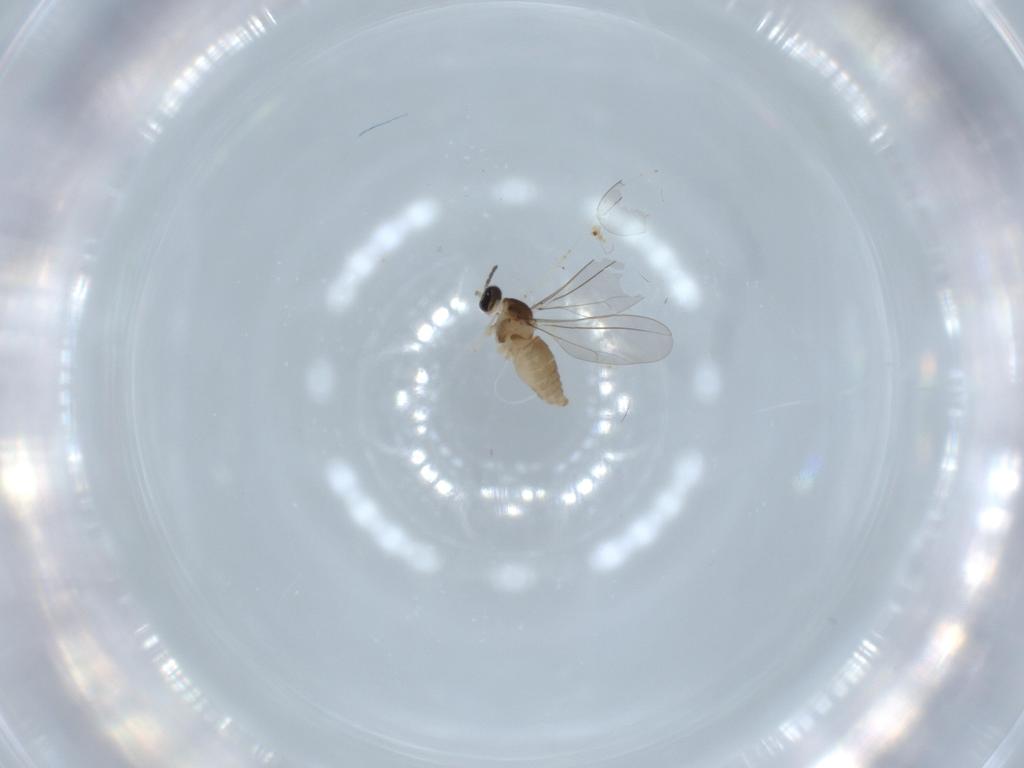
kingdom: Animalia
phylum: Arthropoda
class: Insecta
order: Diptera
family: Cecidomyiidae
